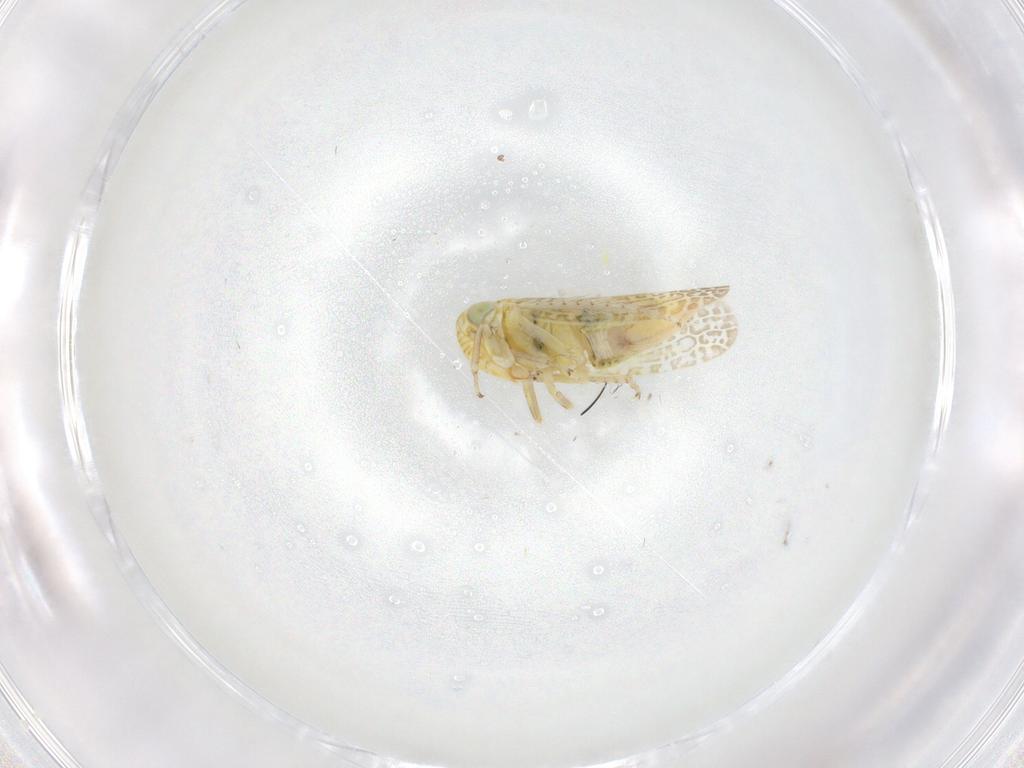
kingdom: Animalia
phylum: Arthropoda
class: Insecta
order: Hemiptera
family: Cicadellidae
